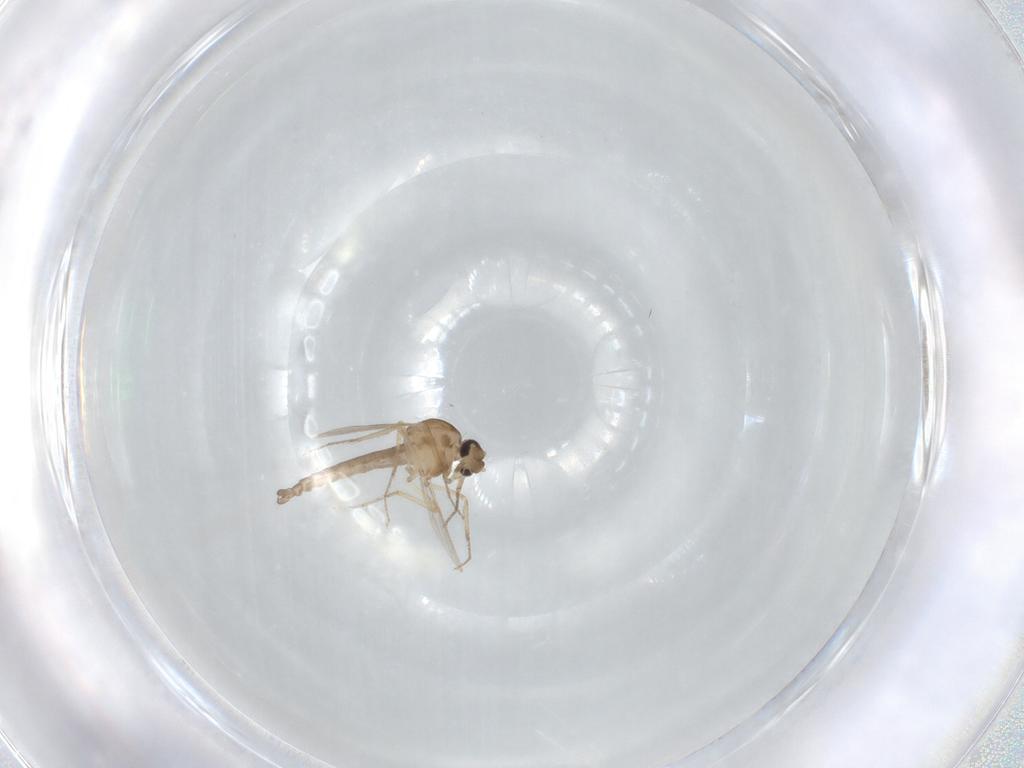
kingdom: Animalia
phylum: Arthropoda
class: Insecta
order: Diptera
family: Ceratopogonidae
